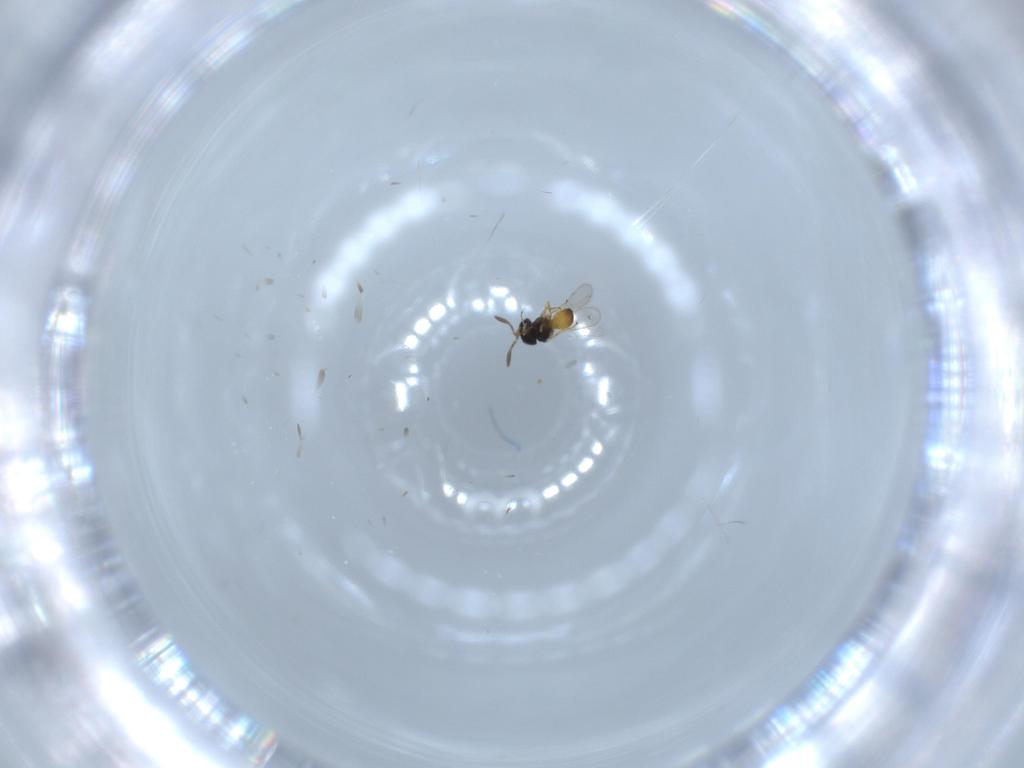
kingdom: Animalia
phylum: Arthropoda
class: Insecta
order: Hymenoptera
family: Scelionidae
